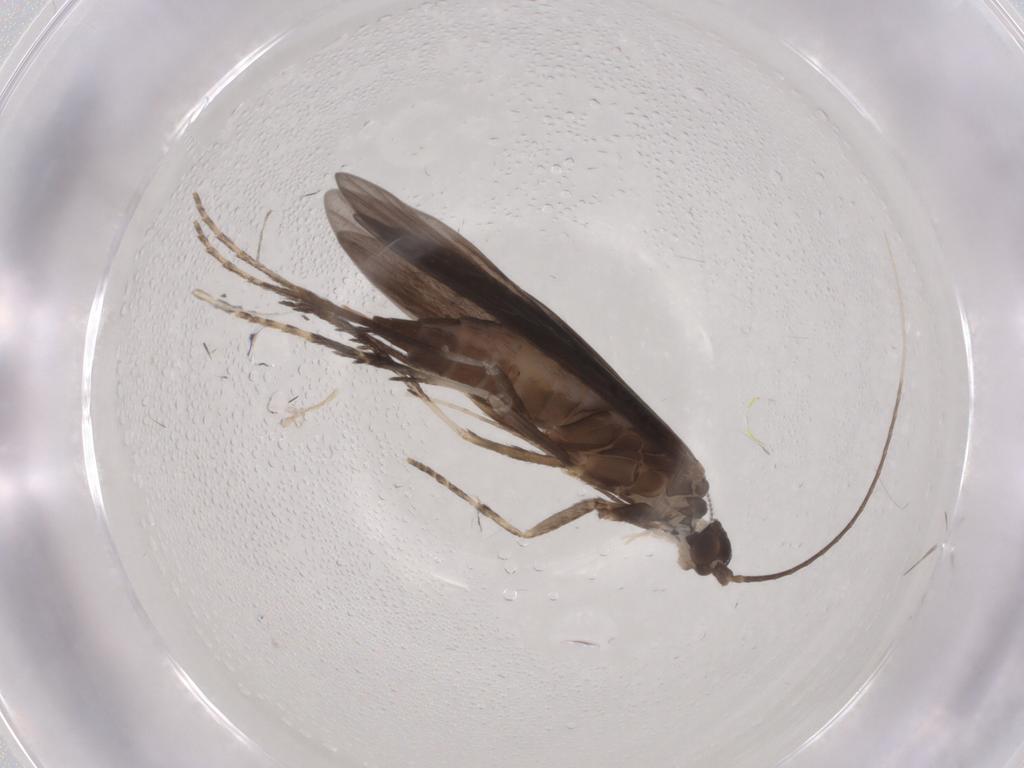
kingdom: Animalia
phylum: Arthropoda
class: Insecta
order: Trichoptera
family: Xiphocentronidae
